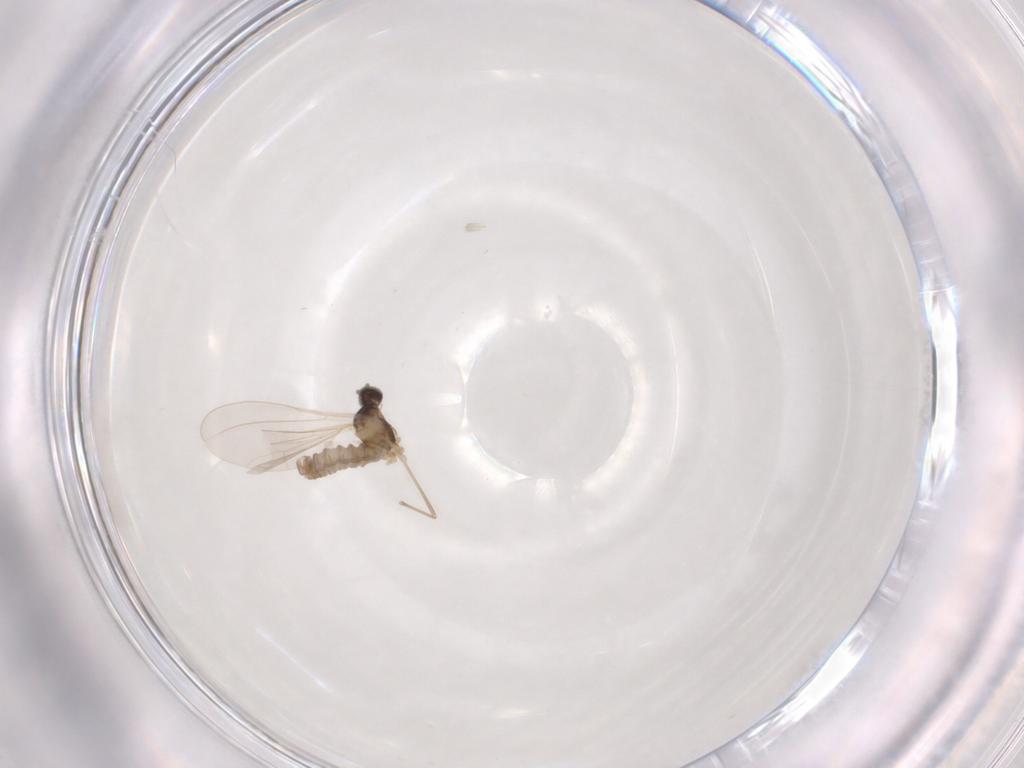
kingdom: Animalia
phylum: Arthropoda
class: Insecta
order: Diptera
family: Cecidomyiidae
